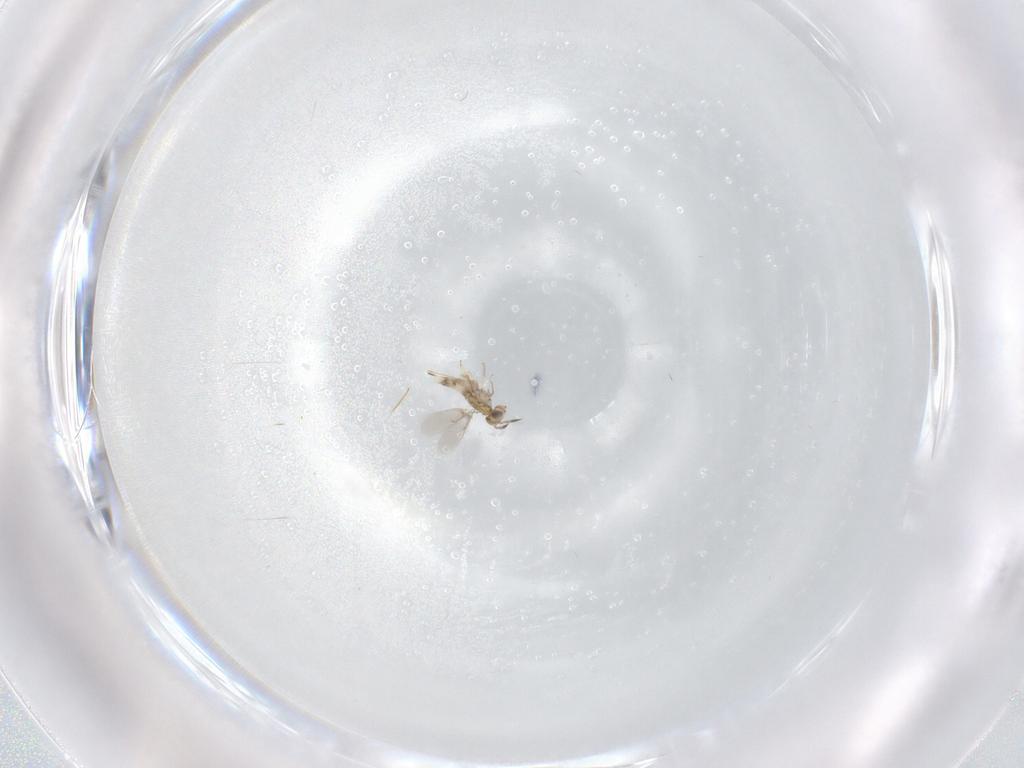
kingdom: Animalia
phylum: Arthropoda
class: Insecta
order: Hymenoptera
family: Aphelinidae
